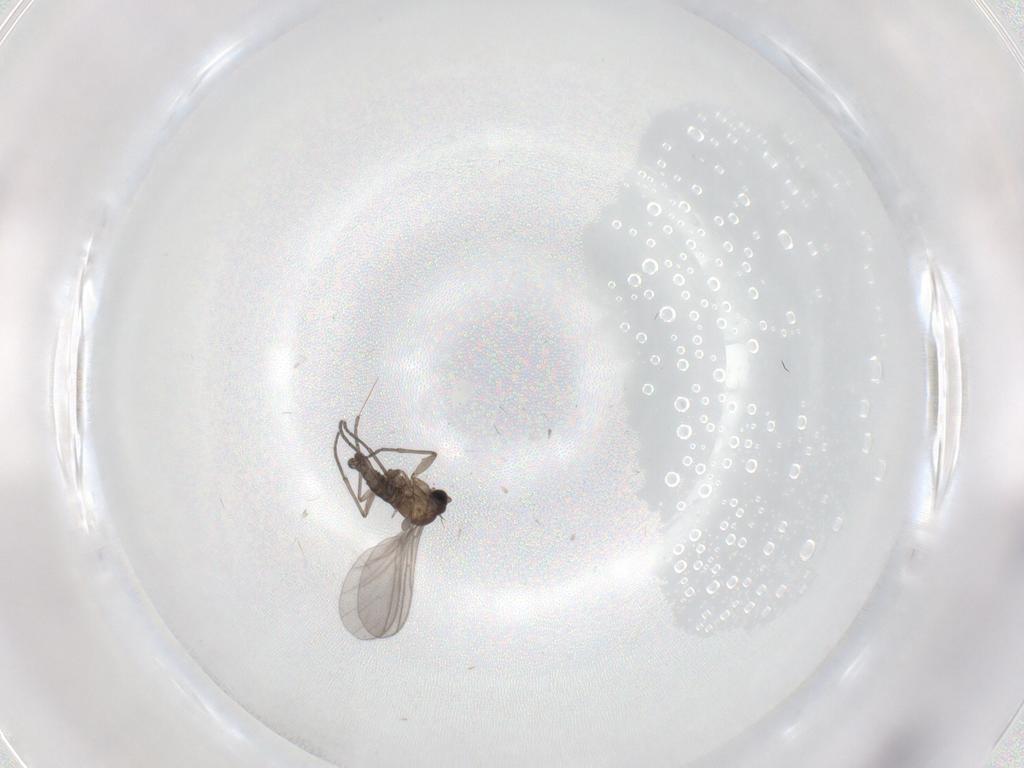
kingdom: Animalia
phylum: Arthropoda
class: Insecta
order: Diptera
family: Sciaridae
